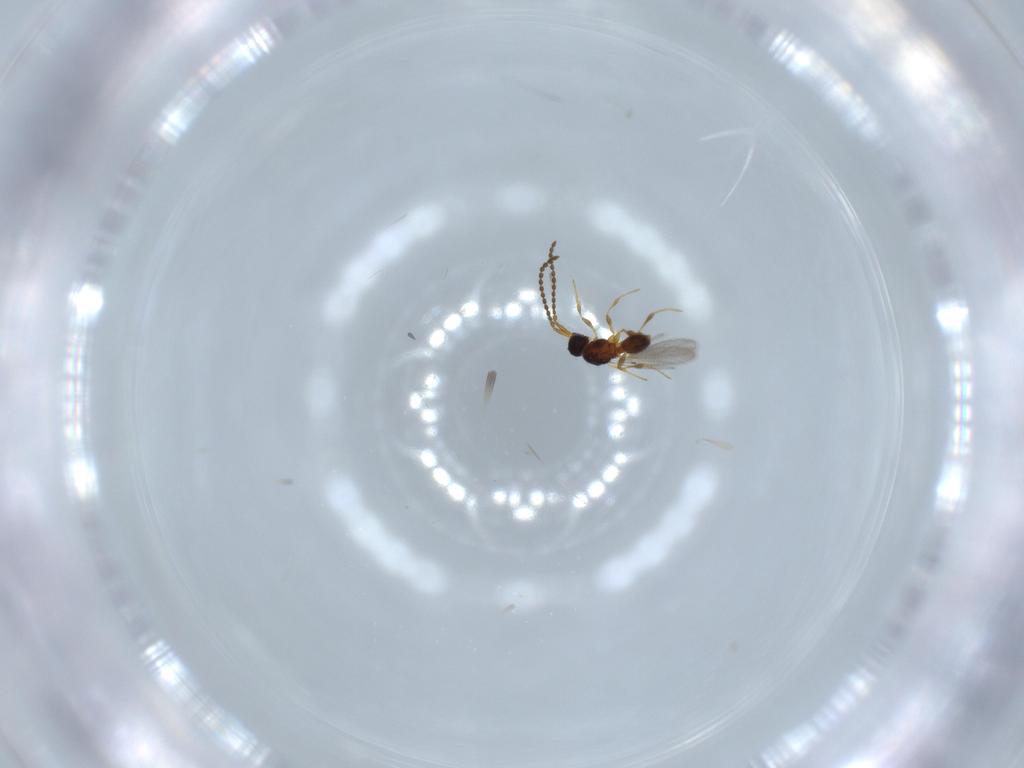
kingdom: Animalia
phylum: Arthropoda
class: Insecta
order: Hymenoptera
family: Diapriidae
